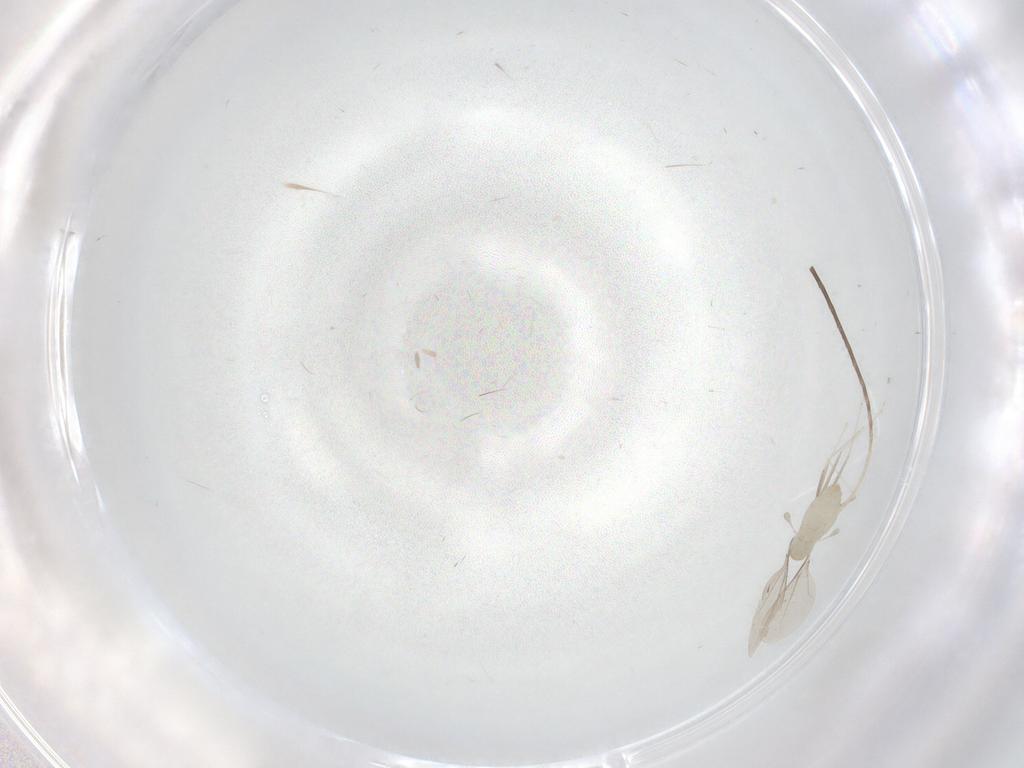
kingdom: Animalia
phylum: Arthropoda
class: Insecta
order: Diptera
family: Cecidomyiidae
